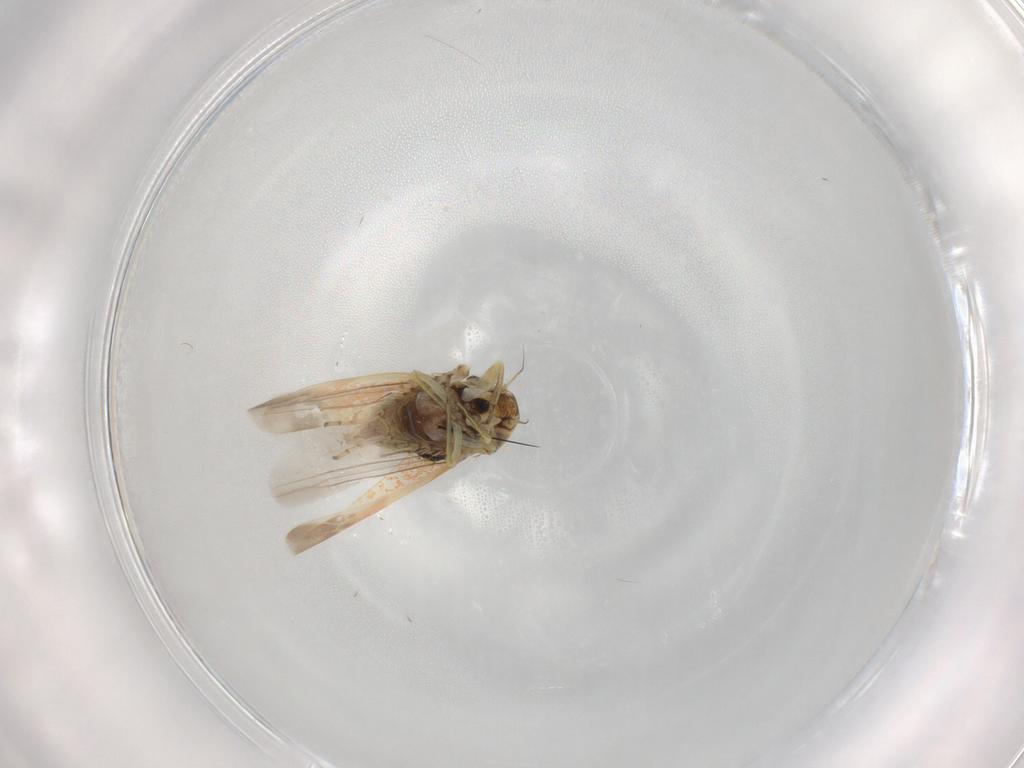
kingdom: Animalia
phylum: Arthropoda
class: Insecta
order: Hemiptera
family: Cicadellidae
